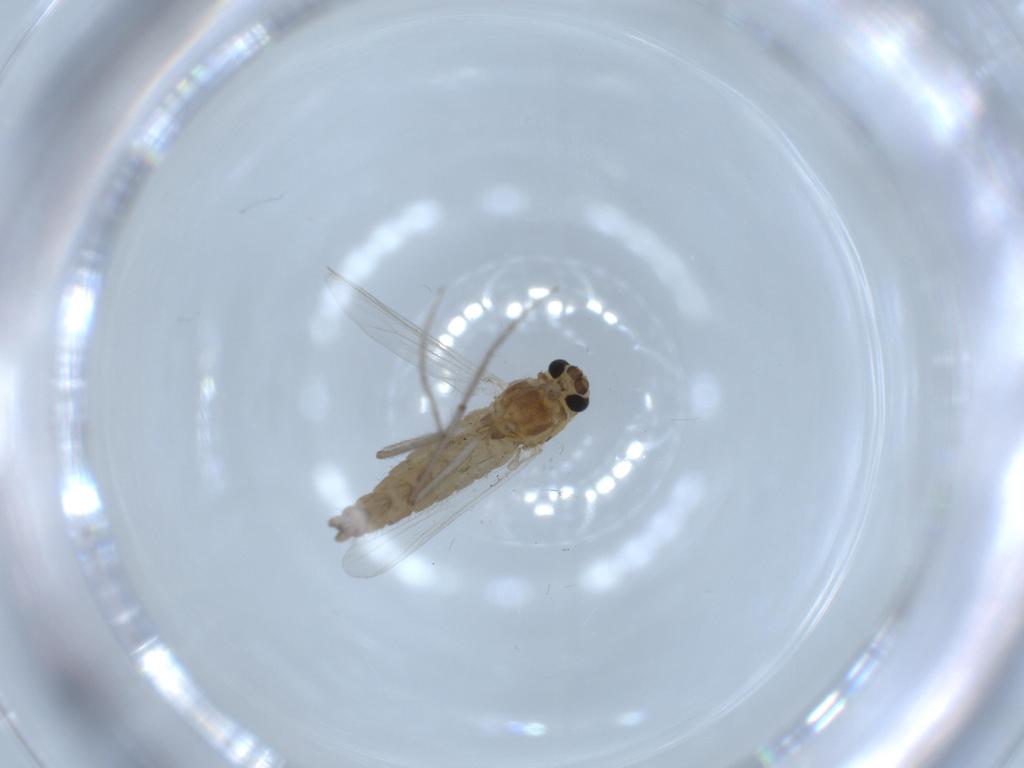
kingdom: Animalia
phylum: Arthropoda
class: Insecta
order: Diptera
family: Chironomidae
